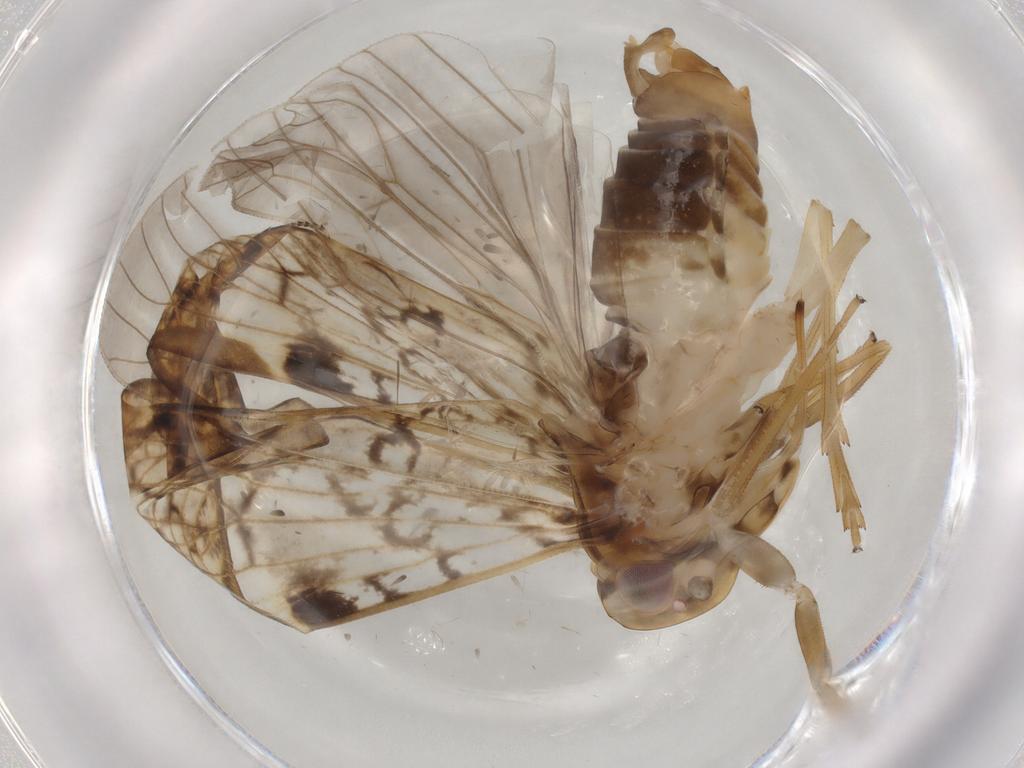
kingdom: Animalia
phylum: Arthropoda
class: Insecta
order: Hemiptera
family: Cixiidae
